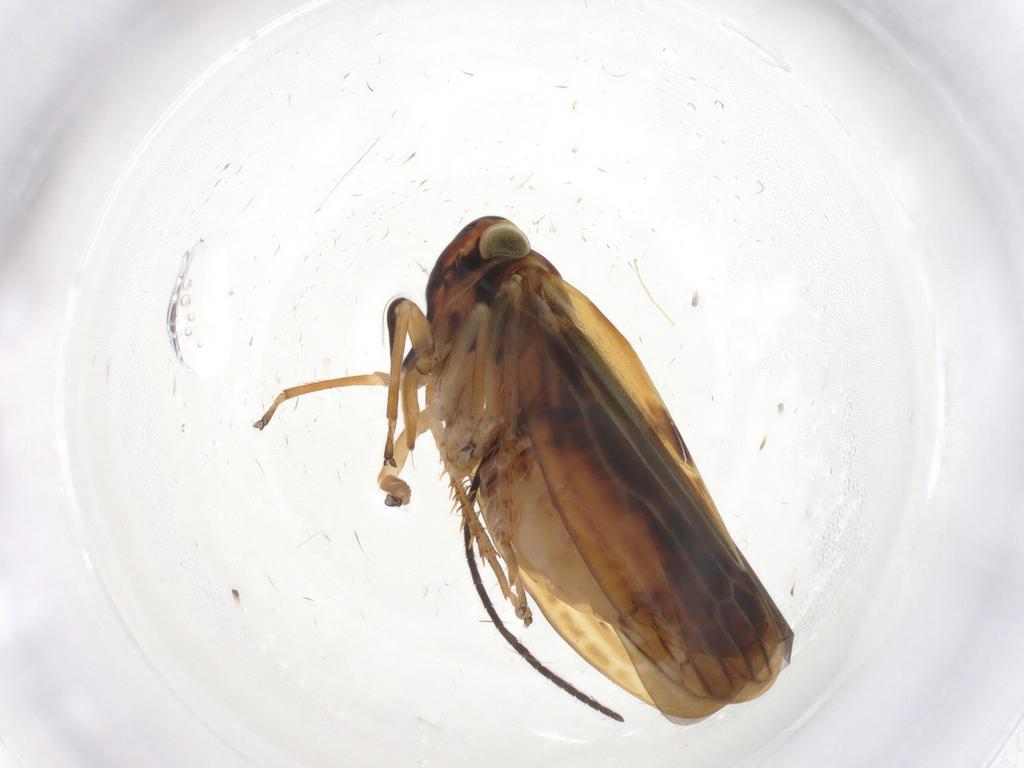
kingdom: Animalia
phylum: Arthropoda
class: Insecta
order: Hemiptera
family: Cicadellidae
